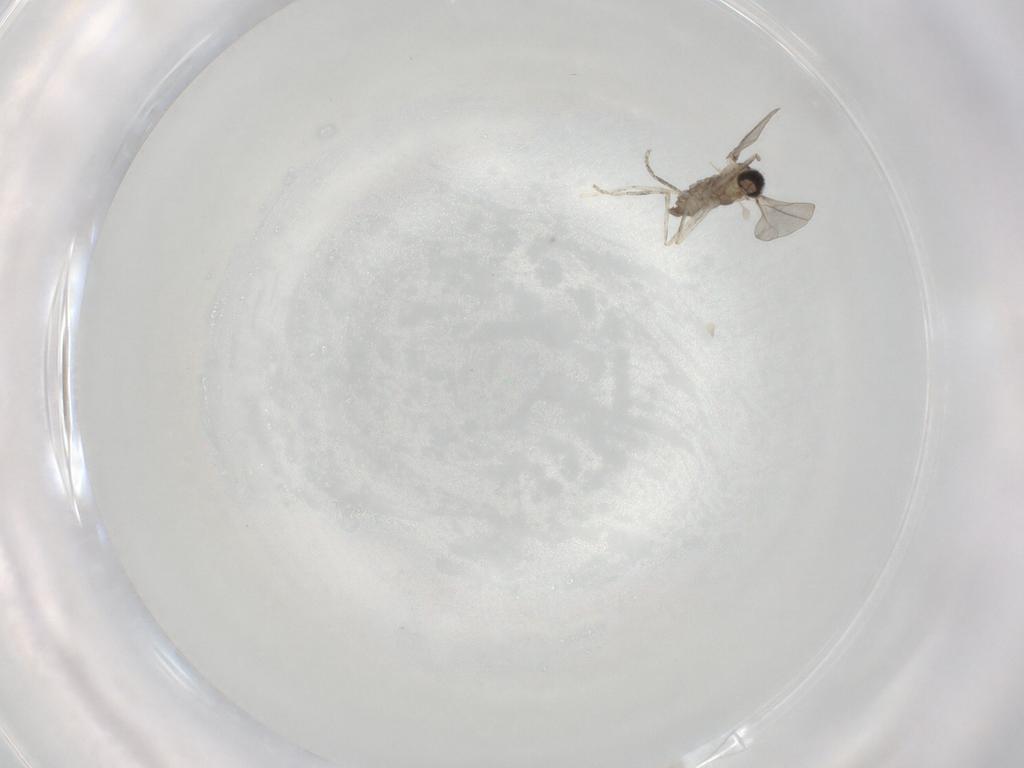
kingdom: Animalia
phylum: Arthropoda
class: Insecta
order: Diptera
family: Cecidomyiidae
